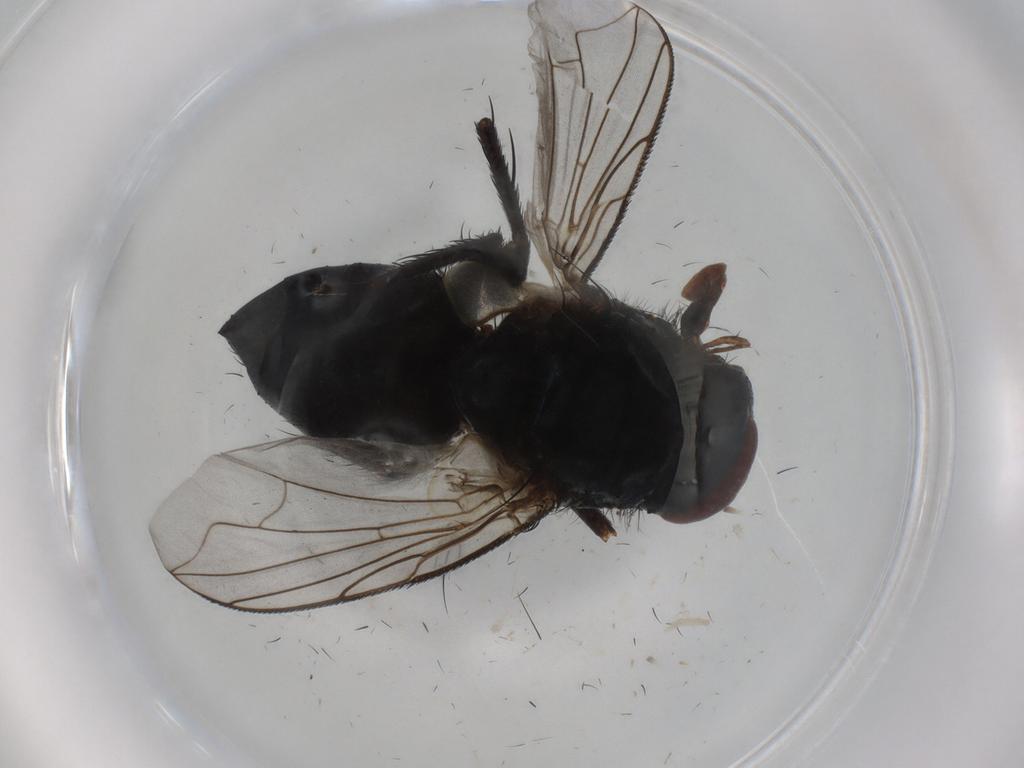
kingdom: Animalia
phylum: Arthropoda
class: Insecta
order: Diptera
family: Tachinidae
